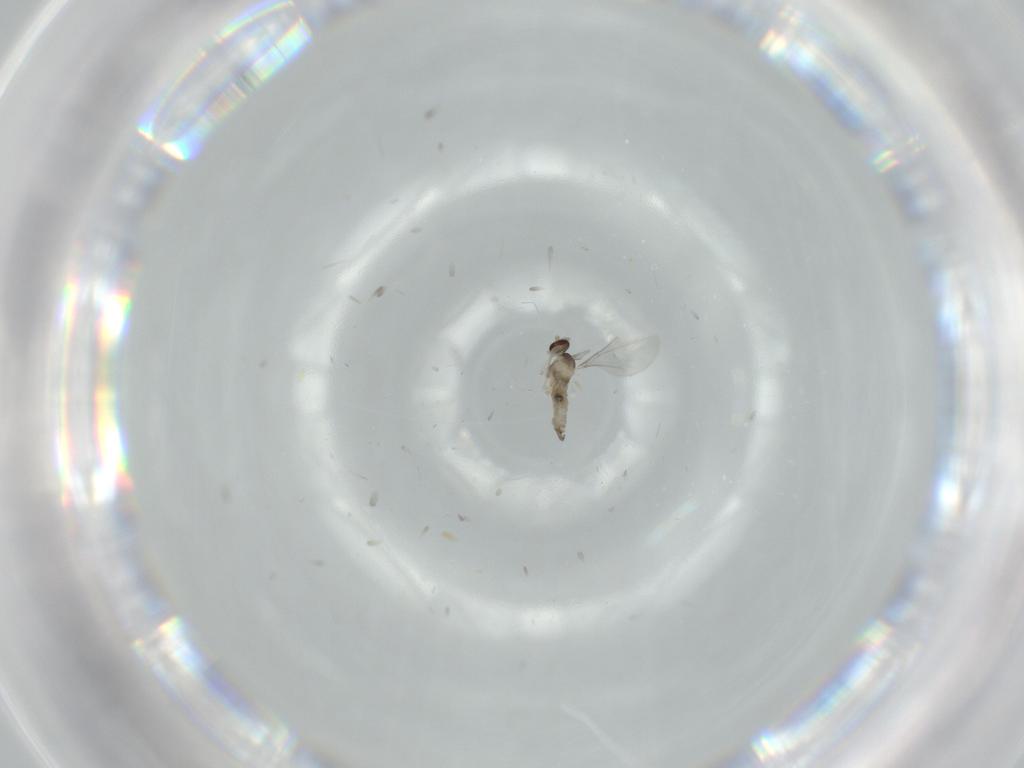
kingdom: Animalia
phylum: Arthropoda
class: Insecta
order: Diptera
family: Cecidomyiidae
